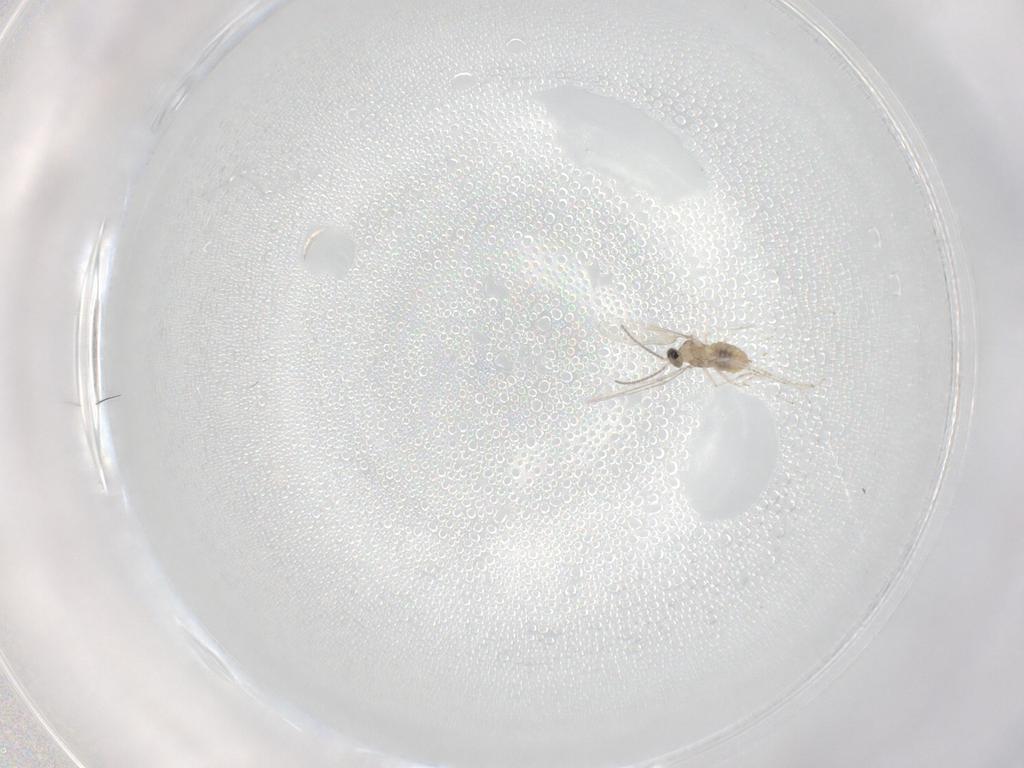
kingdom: Animalia
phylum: Arthropoda
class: Insecta
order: Diptera
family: Cecidomyiidae
